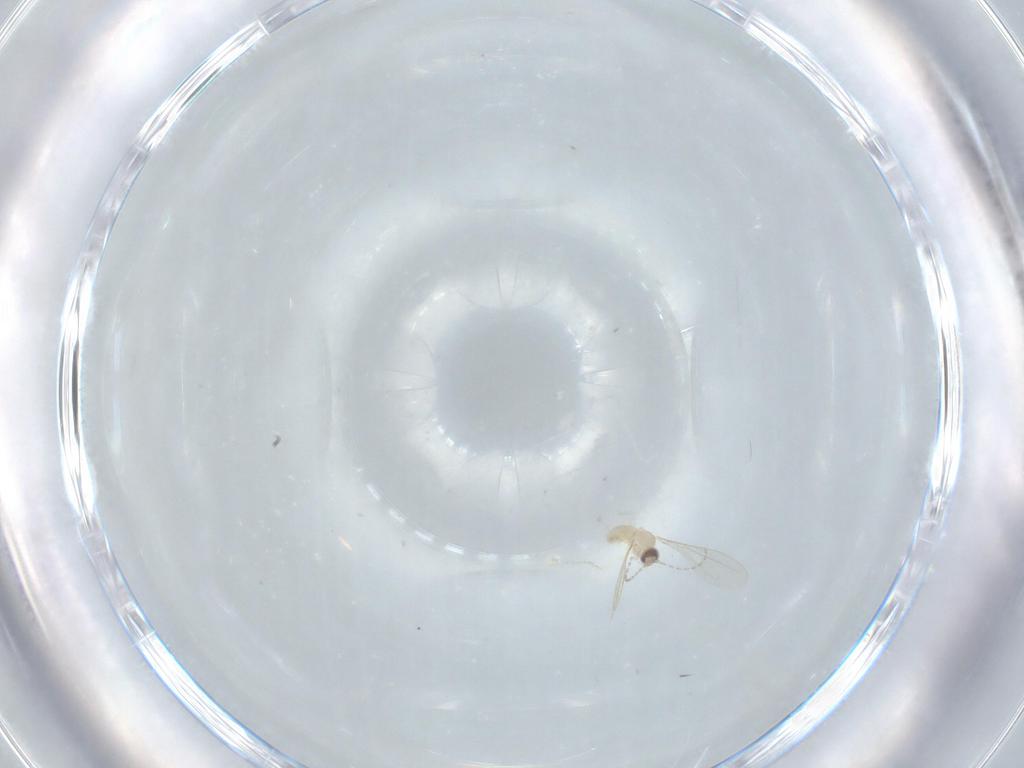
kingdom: Animalia
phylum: Arthropoda
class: Insecta
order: Diptera
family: Cecidomyiidae
